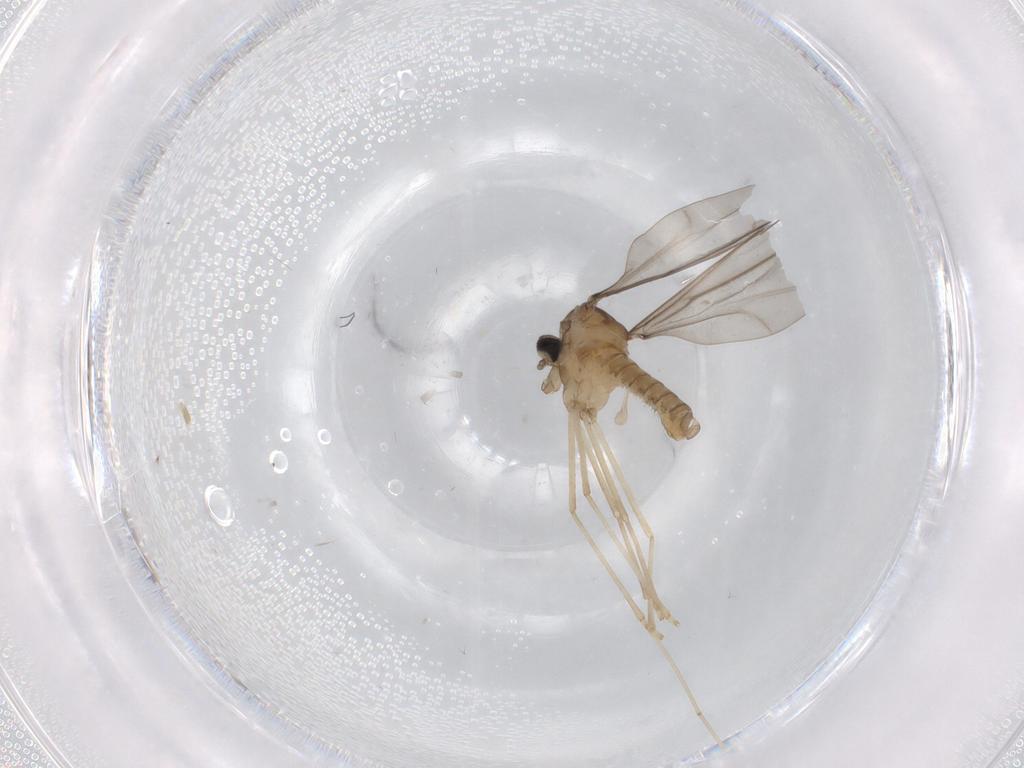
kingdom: Animalia
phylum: Arthropoda
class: Insecta
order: Diptera
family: Cecidomyiidae
